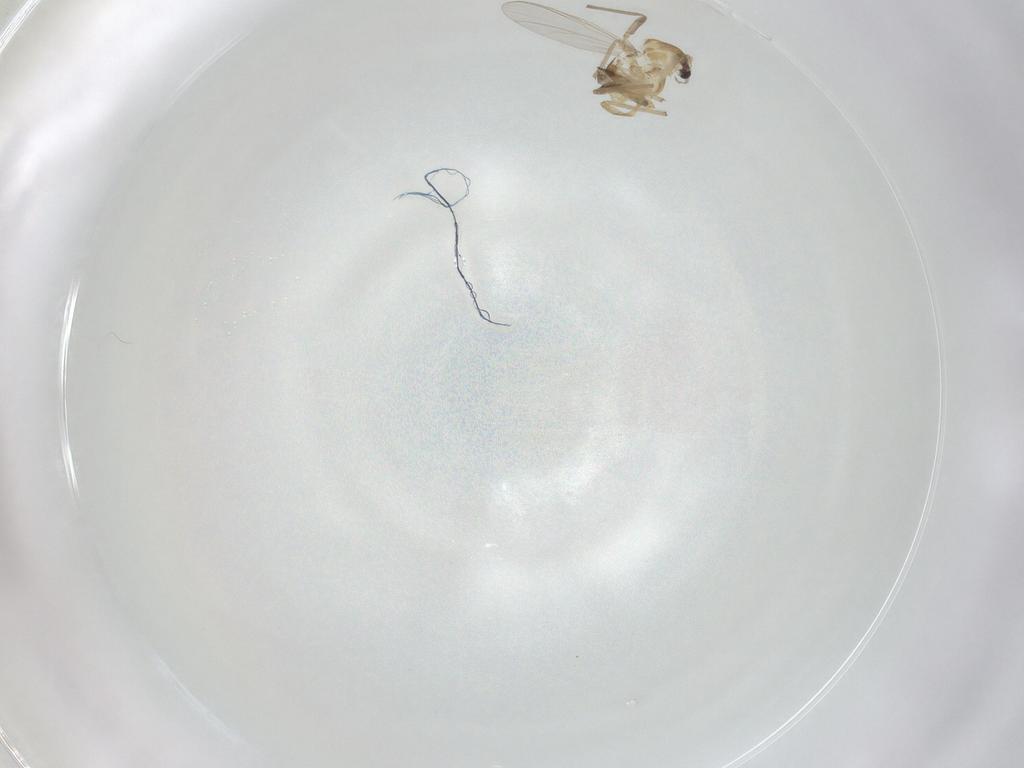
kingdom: Animalia
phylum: Arthropoda
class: Insecta
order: Diptera
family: Chironomidae
